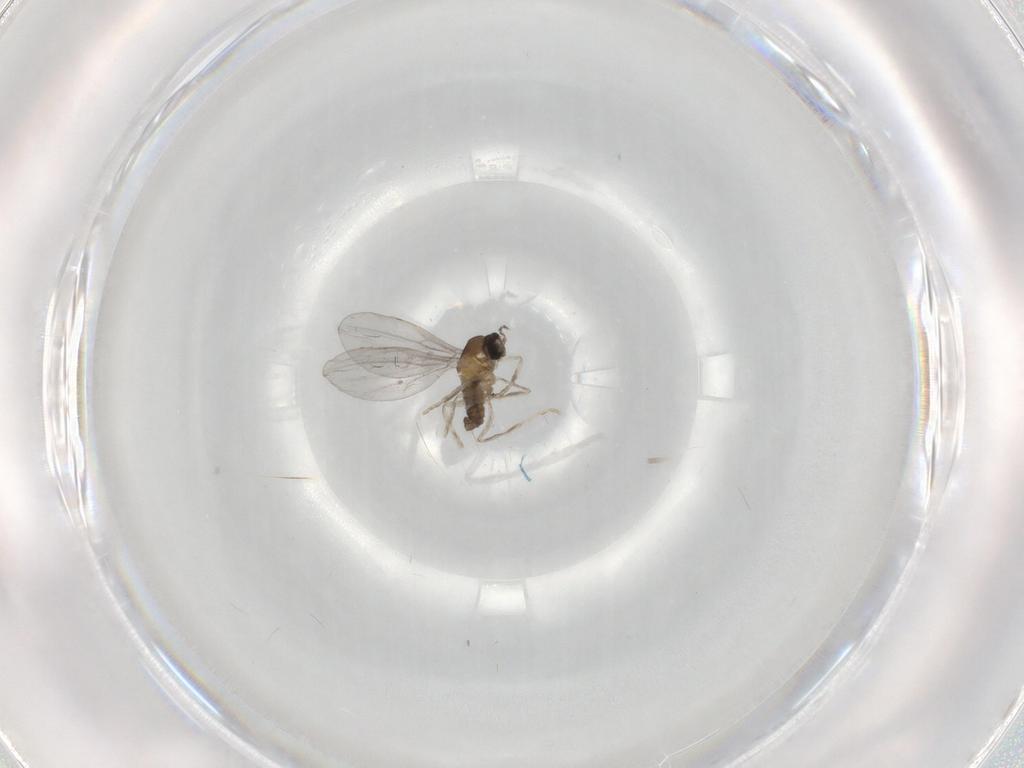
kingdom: Animalia
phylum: Arthropoda
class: Insecta
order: Diptera
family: Cecidomyiidae
